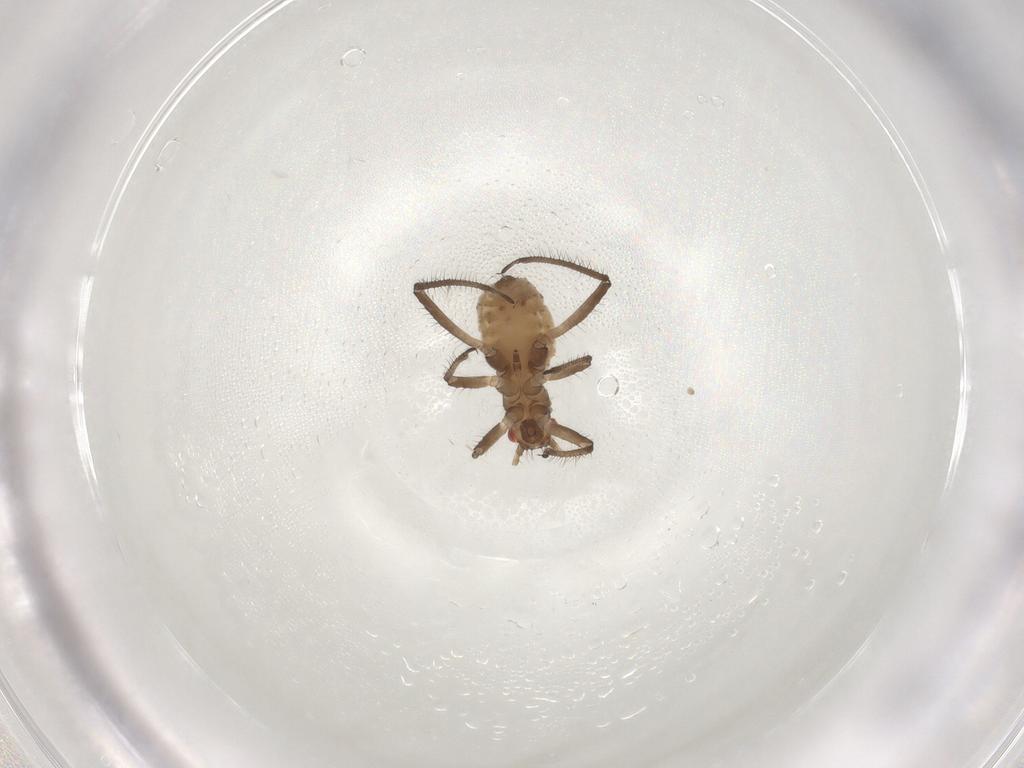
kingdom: Animalia
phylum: Arthropoda
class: Insecta
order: Hemiptera
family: Aphididae
